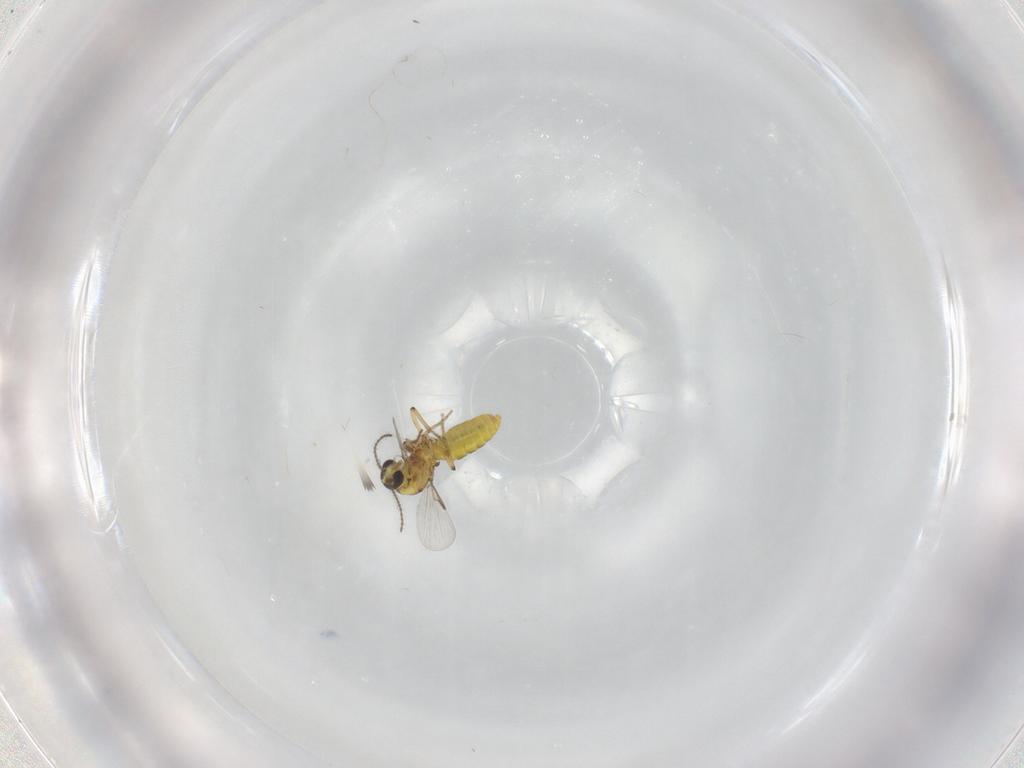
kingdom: Animalia
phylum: Arthropoda
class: Insecta
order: Diptera
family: Ceratopogonidae
